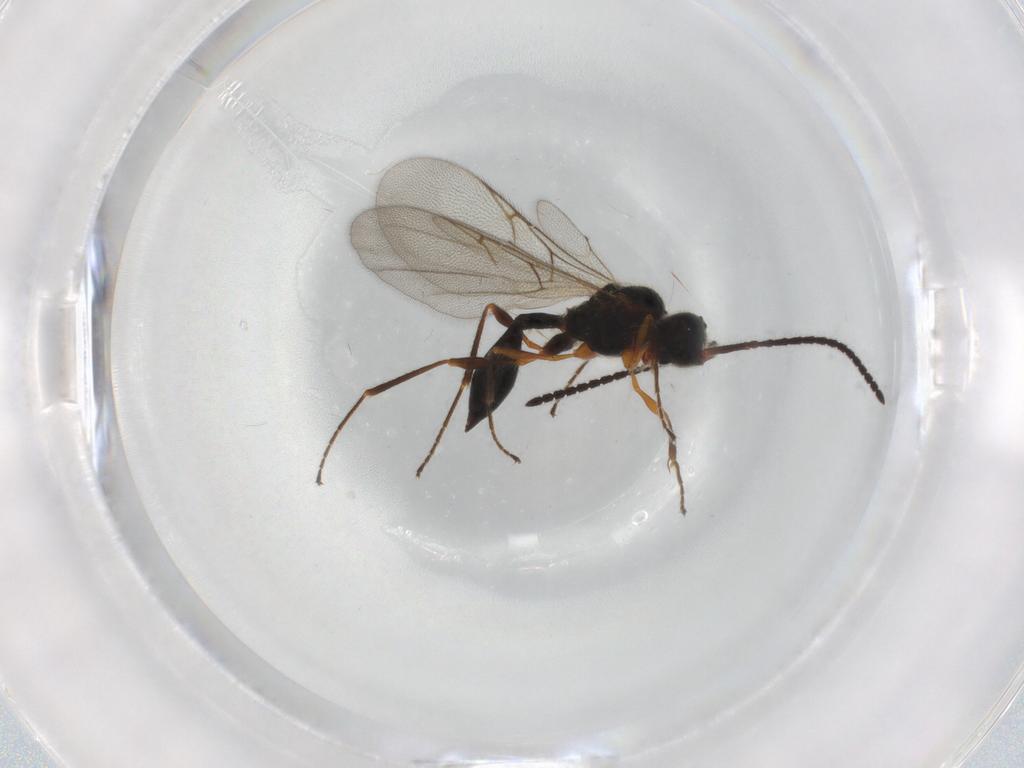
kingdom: Animalia
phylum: Arthropoda
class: Insecta
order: Hymenoptera
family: Diapriidae
